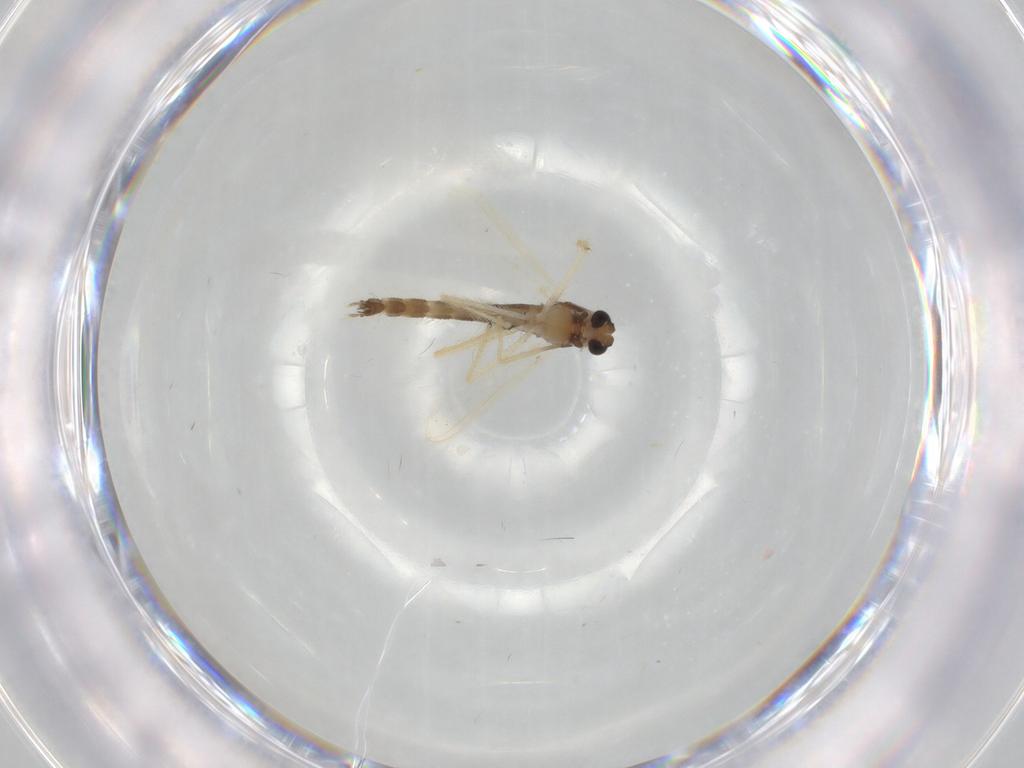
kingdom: Animalia
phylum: Arthropoda
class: Insecta
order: Diptera
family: Chironomidae
